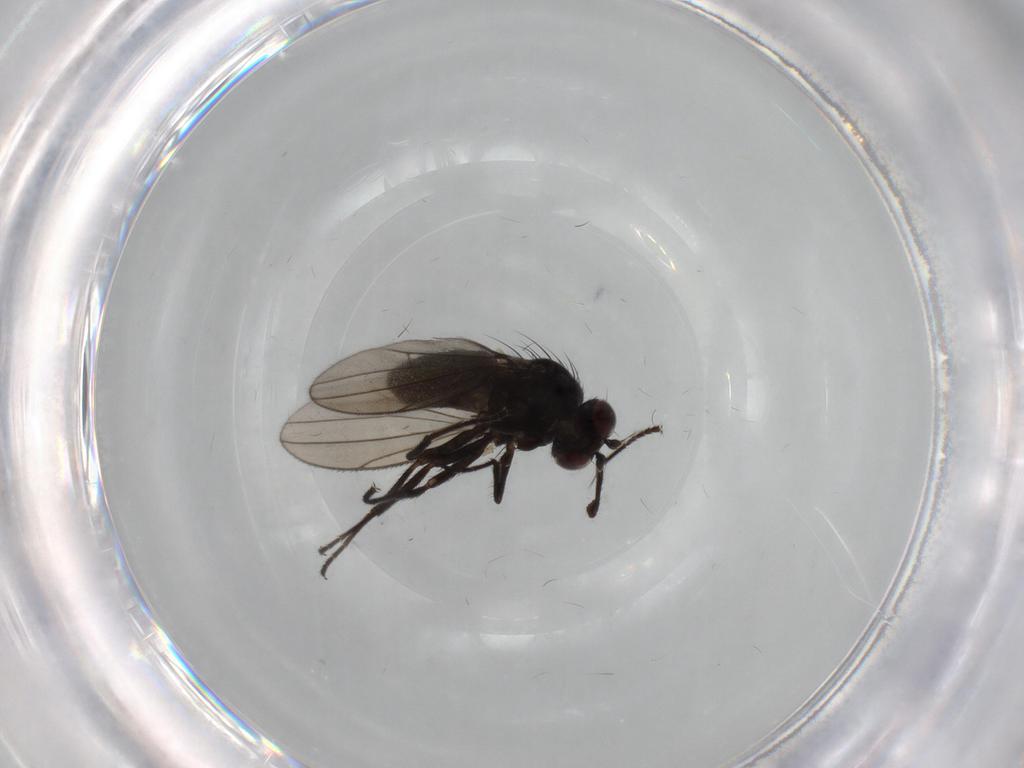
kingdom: Animalia
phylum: Arthropoda
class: Insecta
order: Diptera
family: Ephydridae
